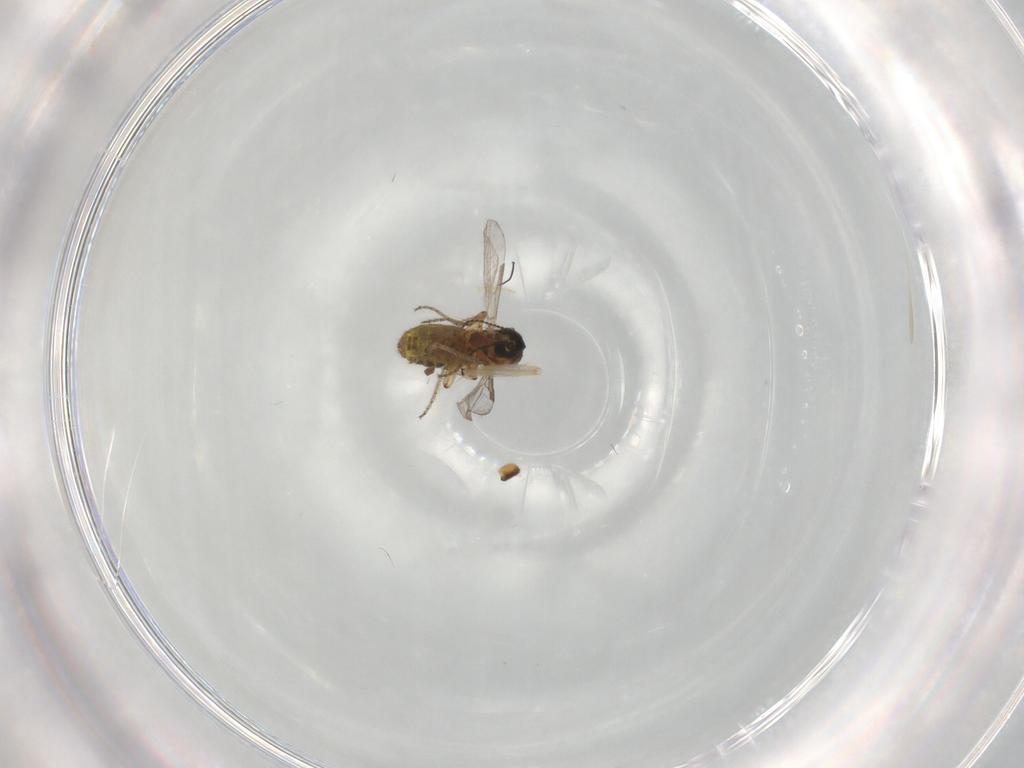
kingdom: Animalia
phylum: Arthropoda
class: Insecta
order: Diptera
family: Ceratopogonidae
